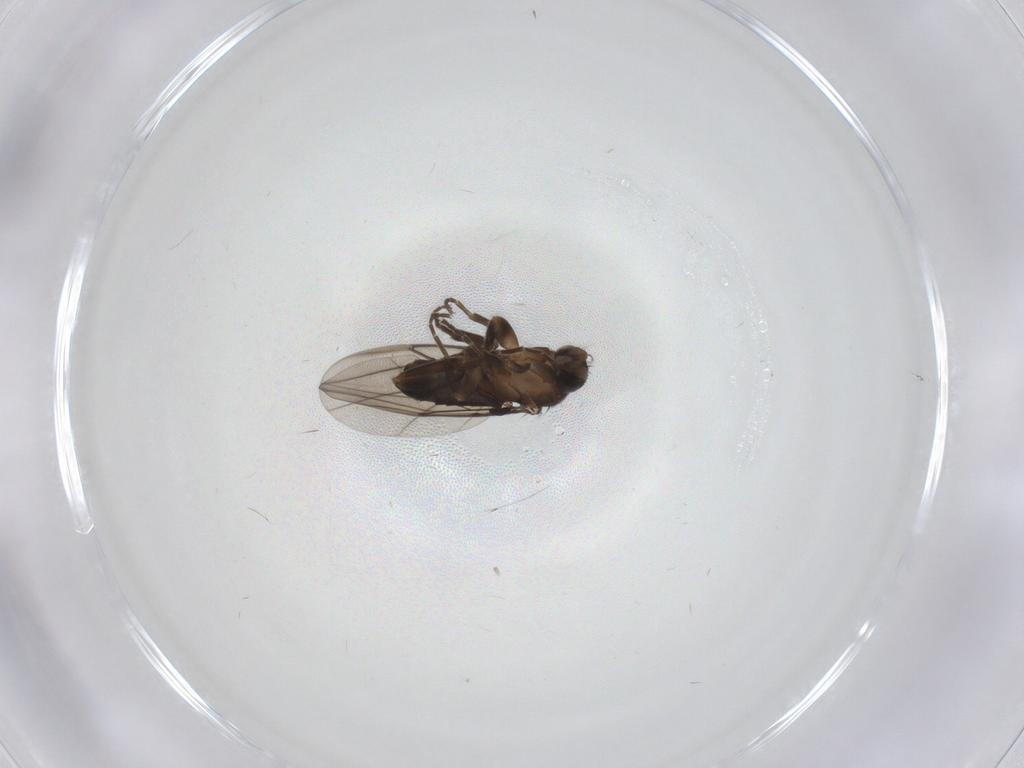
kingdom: Animalia
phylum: Arthropoda
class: Insecta
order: Diptera
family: Phoridae
